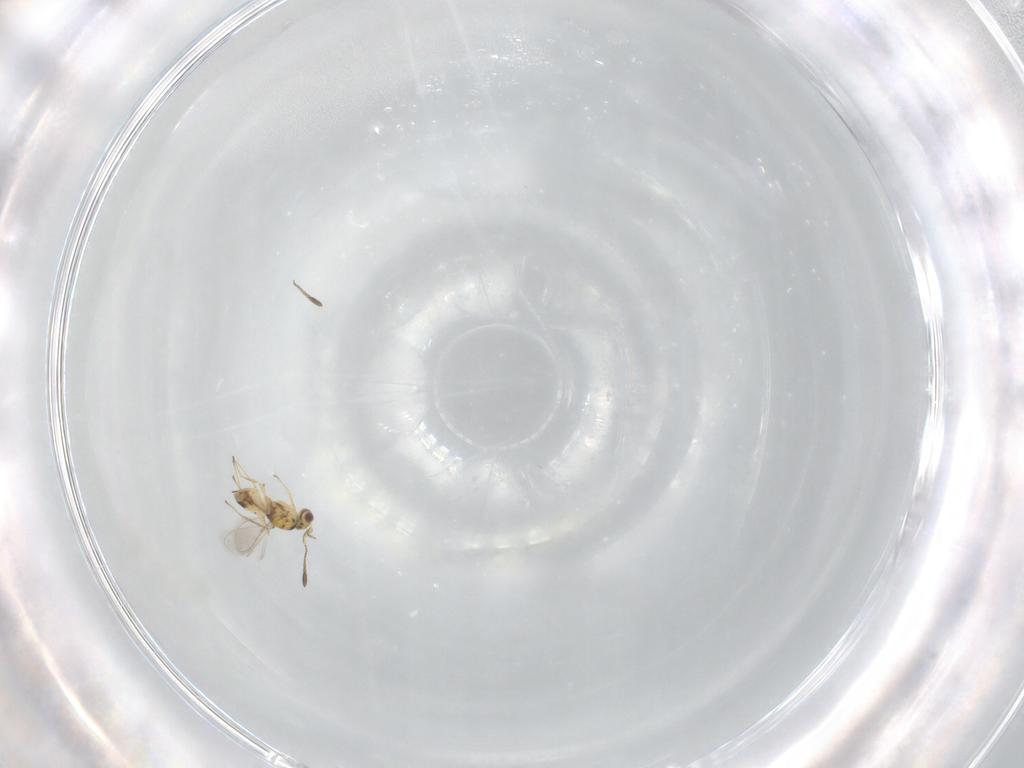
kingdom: Animalia
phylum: Arthropoda
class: Insecta
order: Hymenoptera
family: Mymaridae
